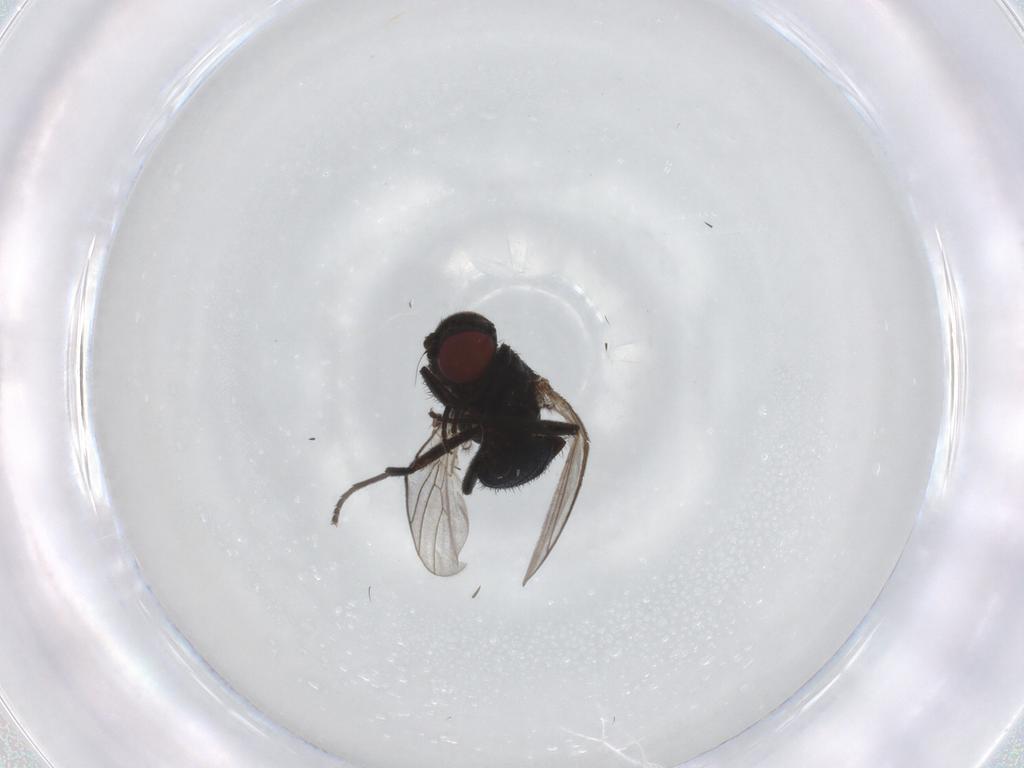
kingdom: Animalia
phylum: Arthropoda
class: Insecta
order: Diptera
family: Agromyzidae
